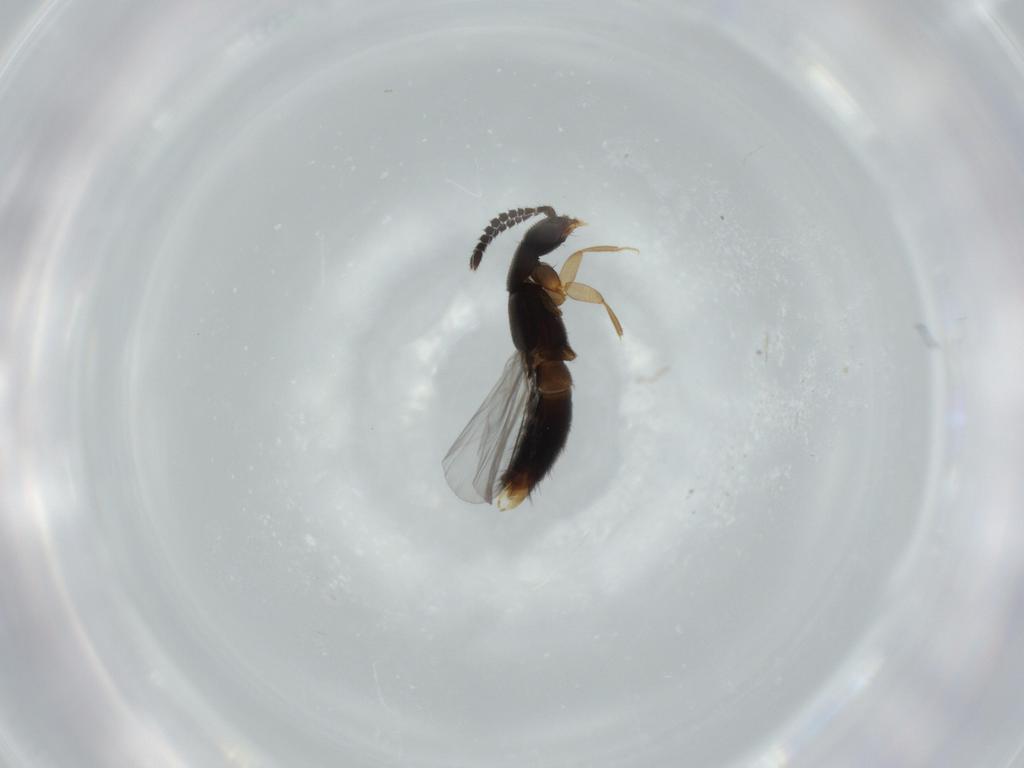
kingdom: Animalia
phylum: Arthropoda
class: Insecta
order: Coleoptera
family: Staphylinidae
